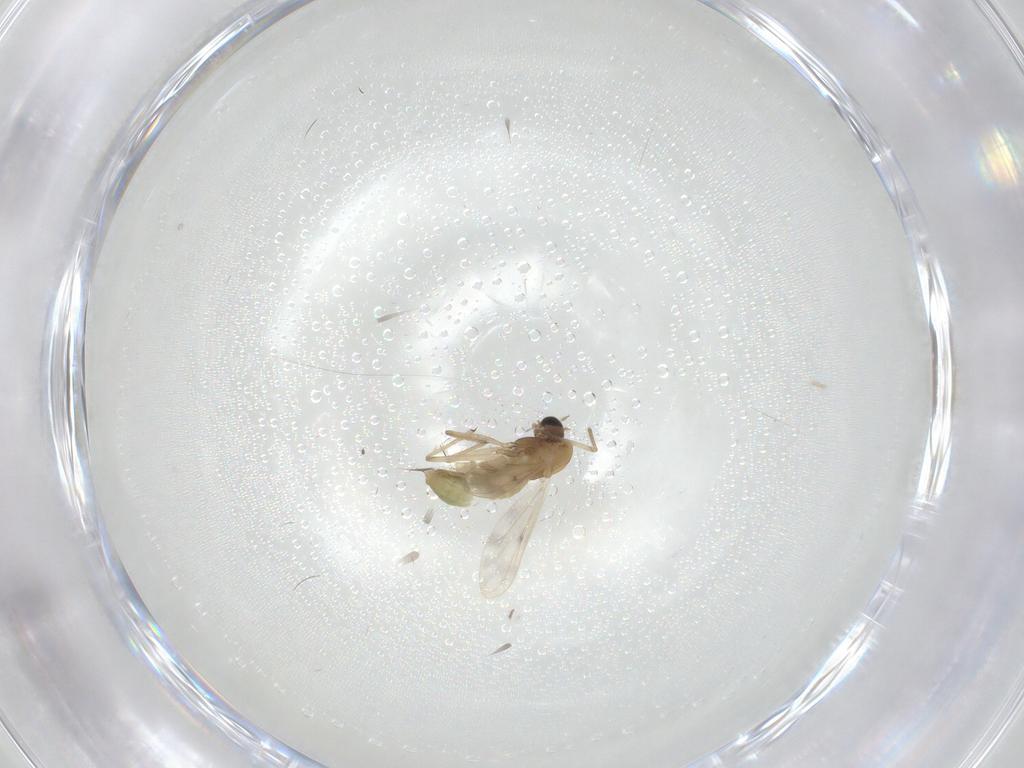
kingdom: Animalia
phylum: Arthropoda
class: Insecta
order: Diptera
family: Chironomidae
